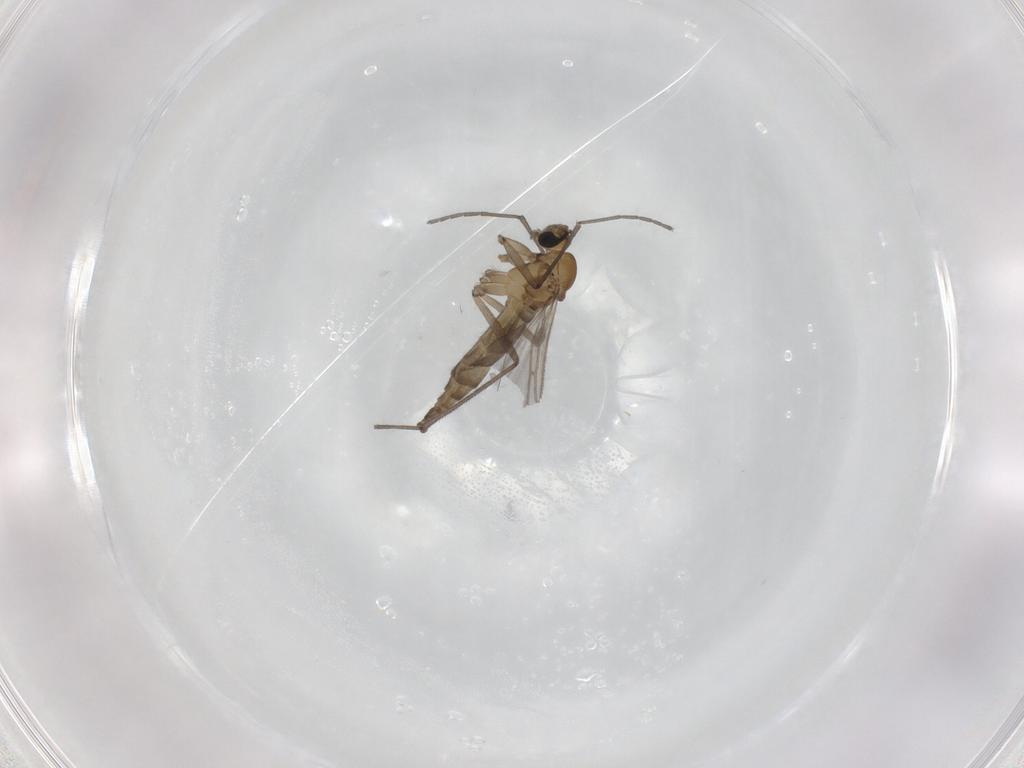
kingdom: Animalia
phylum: Arthropoda
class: Insecta
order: Diptera
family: Sciaridae
